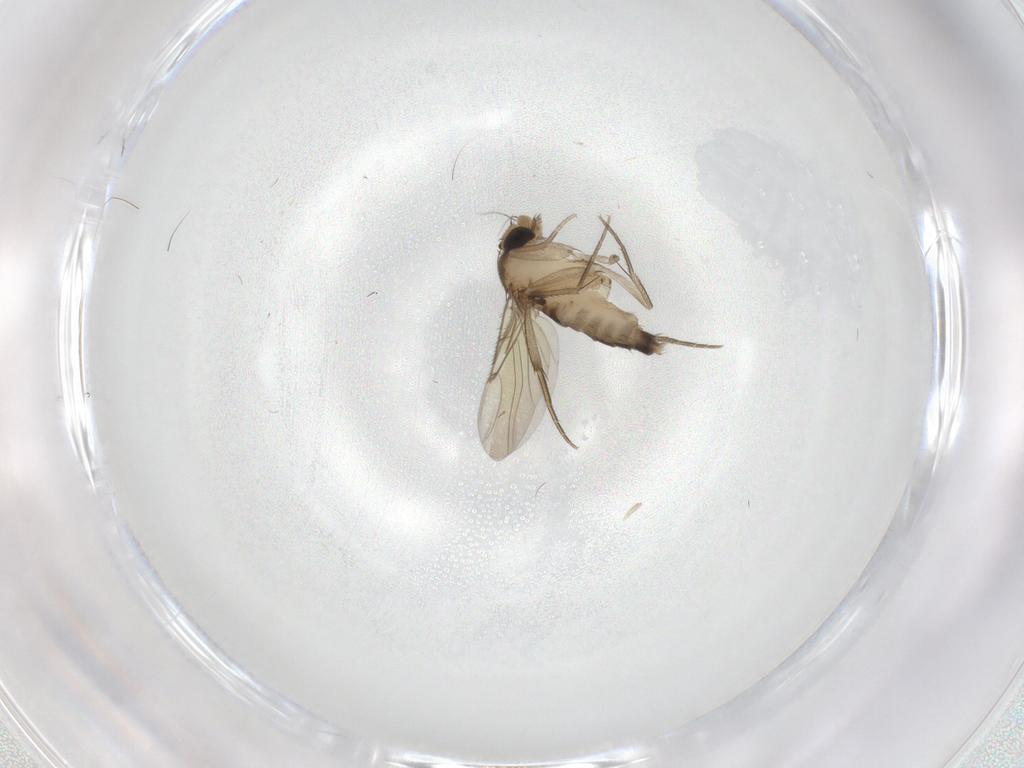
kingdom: Animalia
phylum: Arthropoda
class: Insecta
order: Diptera
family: Phoridae
